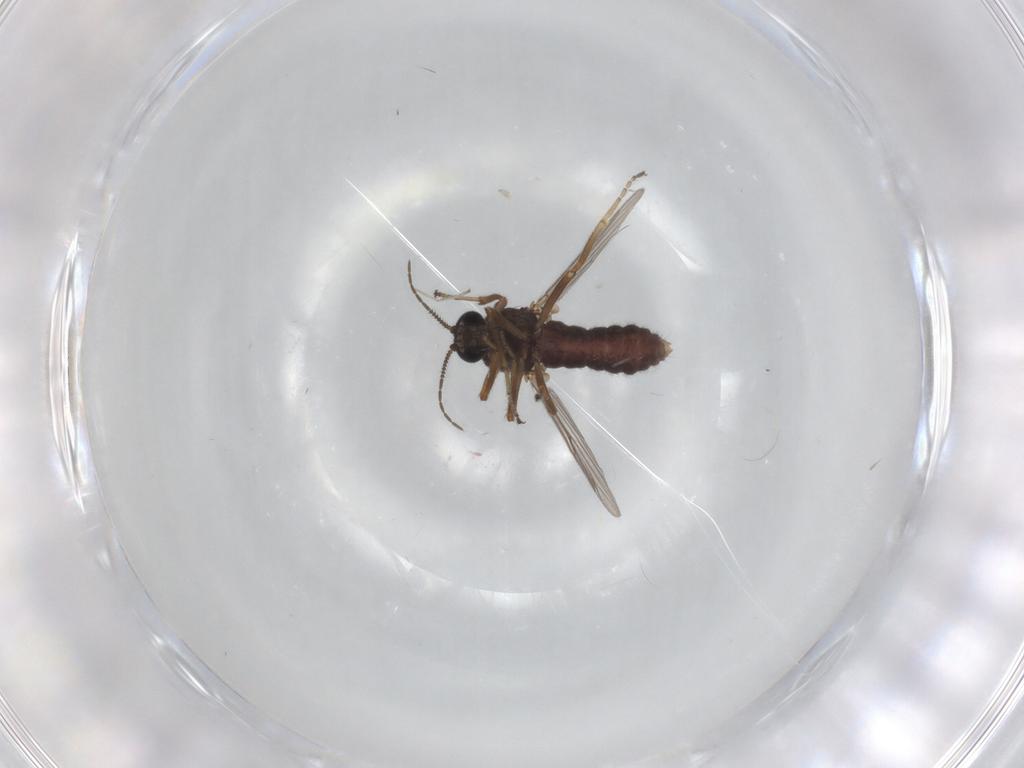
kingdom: Animalia
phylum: Arthropoda
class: Insecta
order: Diptera
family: Ceratopogonidae
